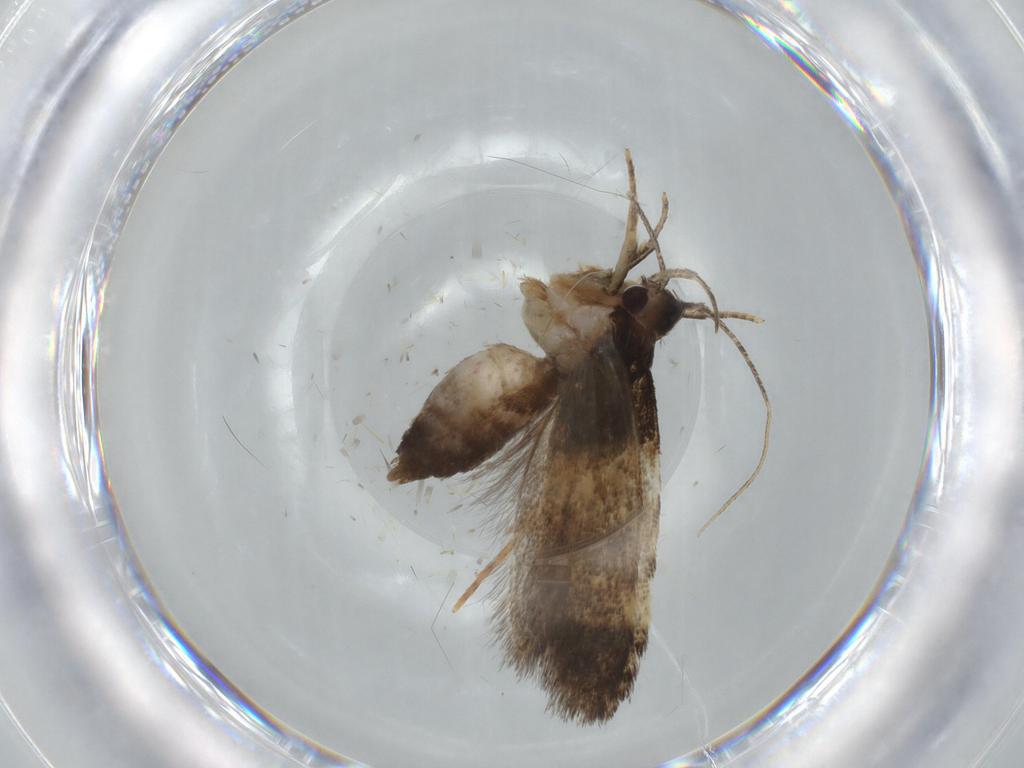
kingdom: Animalia
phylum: Arthropoda
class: Insecta
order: Lepidoptera
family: Cosmopterigidae
